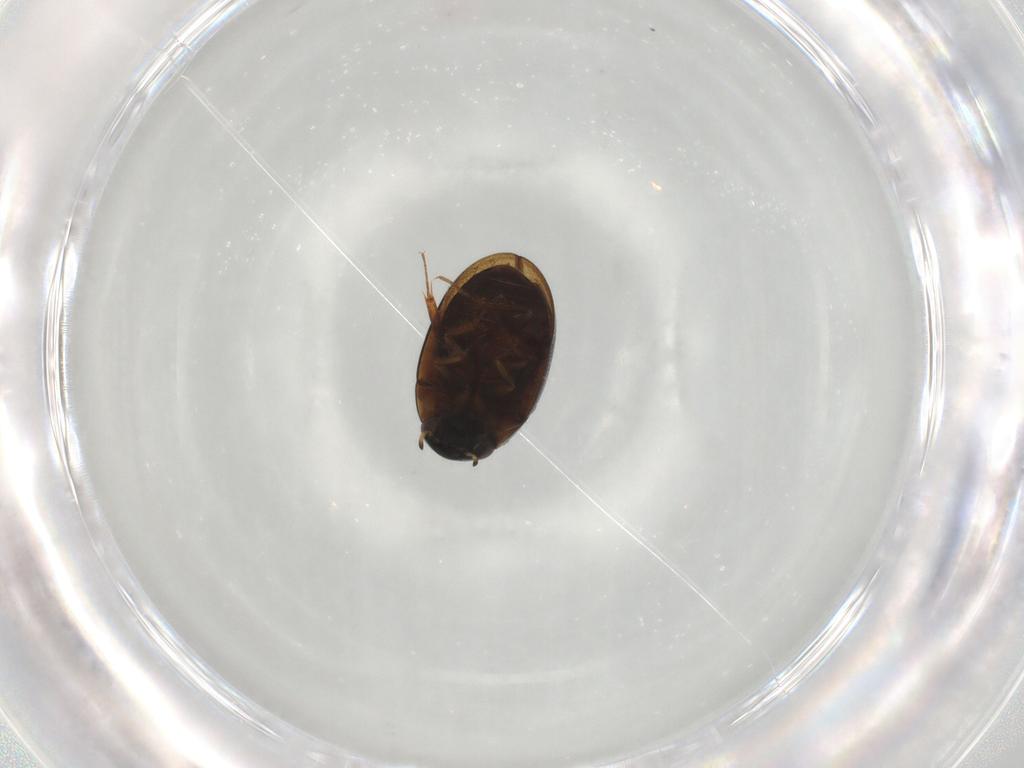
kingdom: Animalia
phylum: Arthropoda
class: Insecta
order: Coleoptera
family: Hydrophilidae
